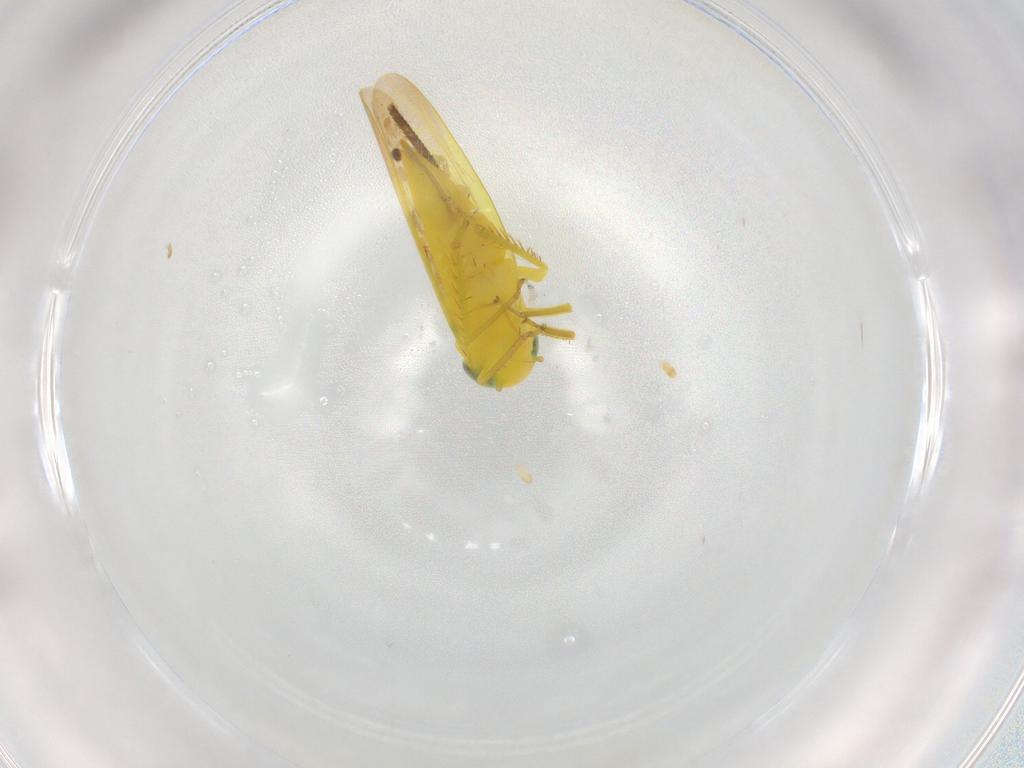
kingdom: Animalia
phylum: Arthropoda
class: Insecta
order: Hemiptera
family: Cicadellidae
